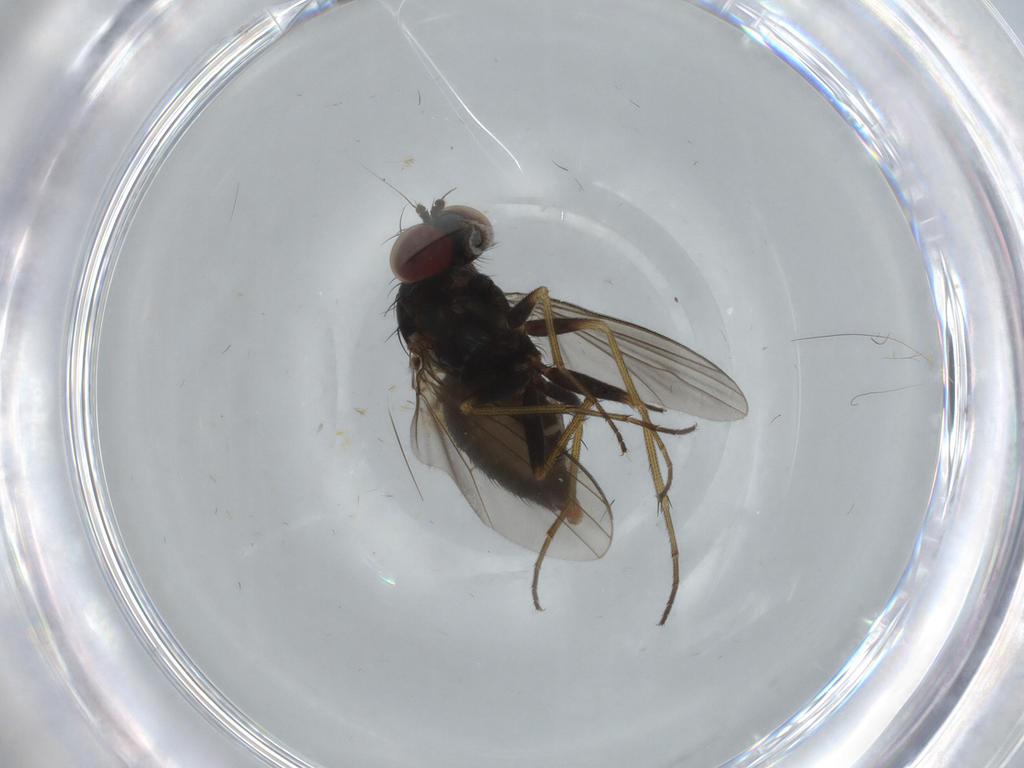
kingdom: Animalia
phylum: Arthropoda
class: Insecta
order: Diptera
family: Dolichopodidae
